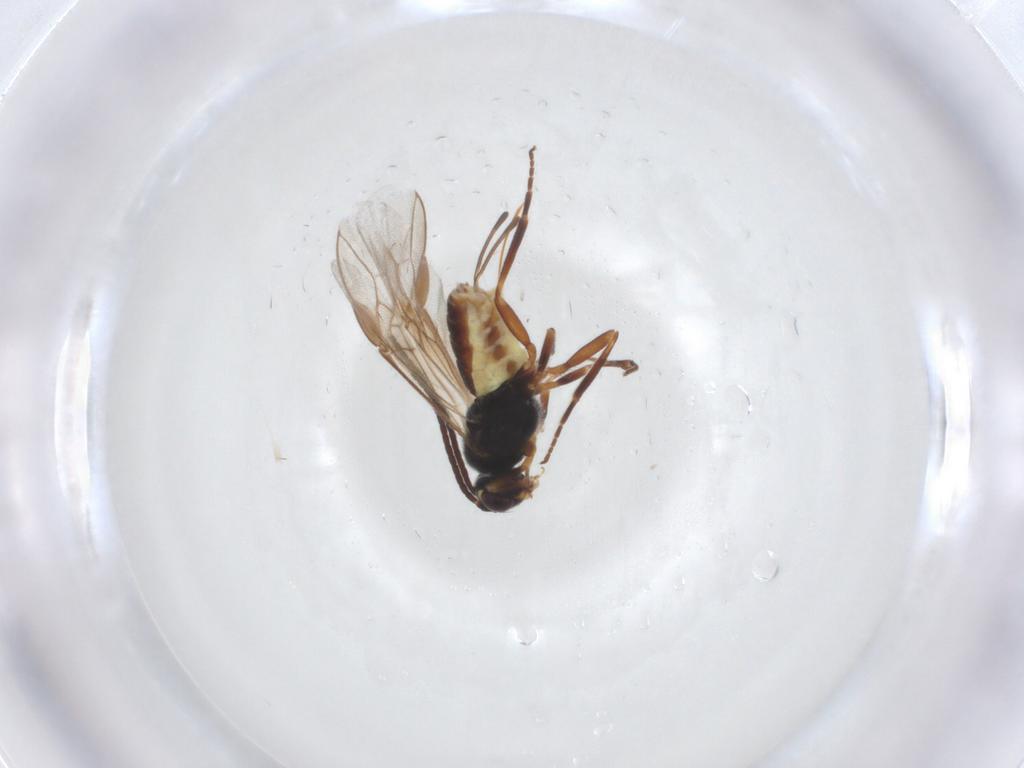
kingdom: Animalia
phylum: Arthropoda
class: Insecta
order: Hymenoptera
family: Braconidae
